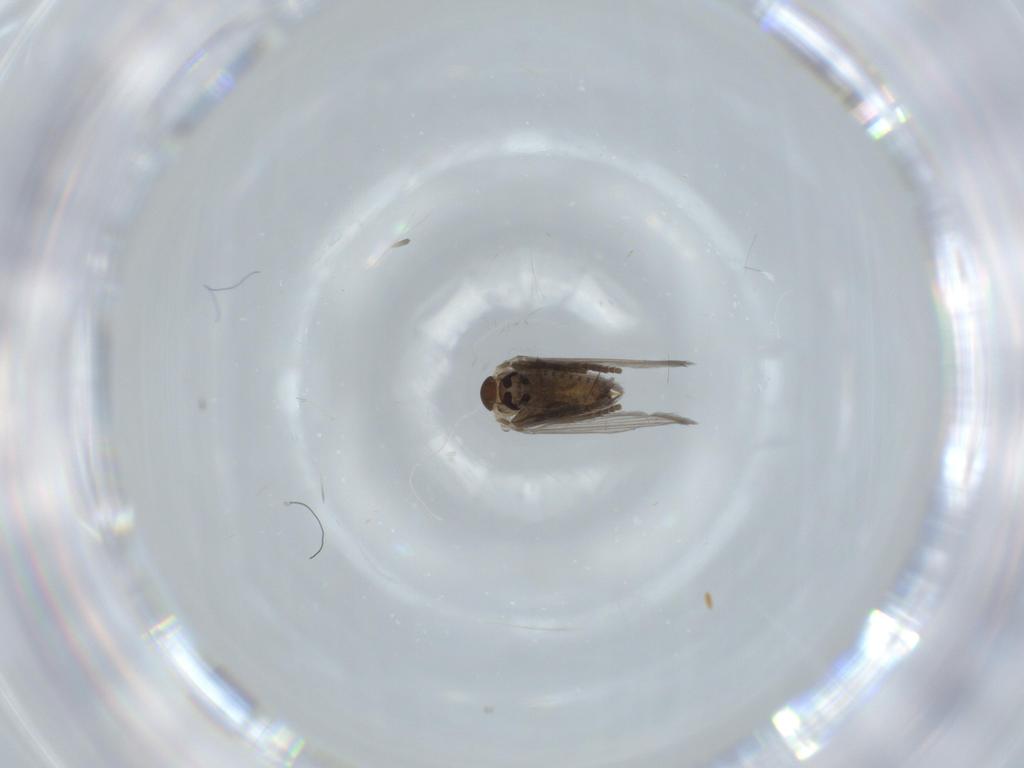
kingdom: Animalia
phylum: Arthropoda
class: Insecta
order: Diptera
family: Psychodidae
